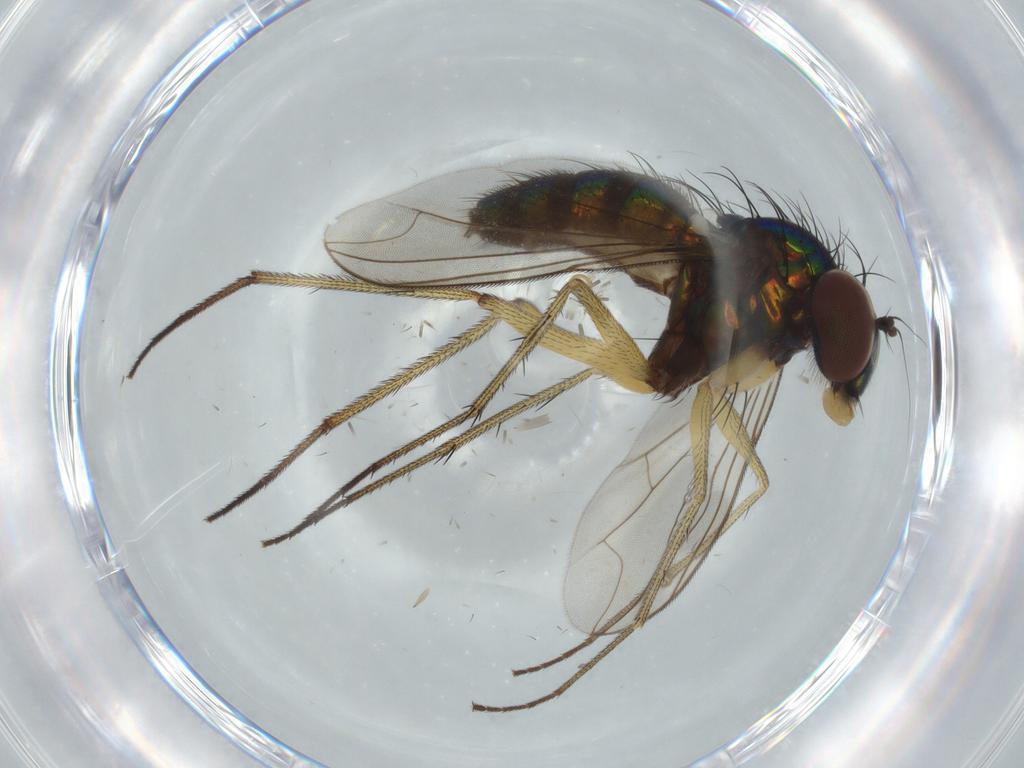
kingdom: Animalia
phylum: Arthropoda
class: Insecta
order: Diptera
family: Dolichopodidae
